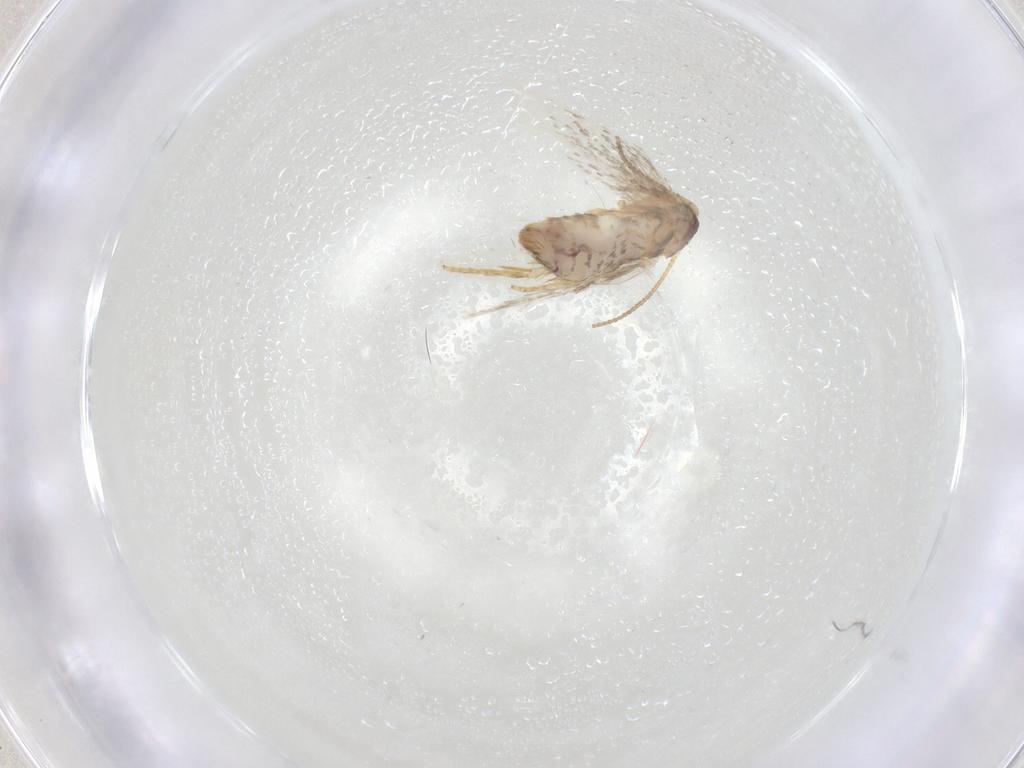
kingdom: Animalia
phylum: Arthropoda
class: Insecta
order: Lepidoptera
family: Nepticulidae
